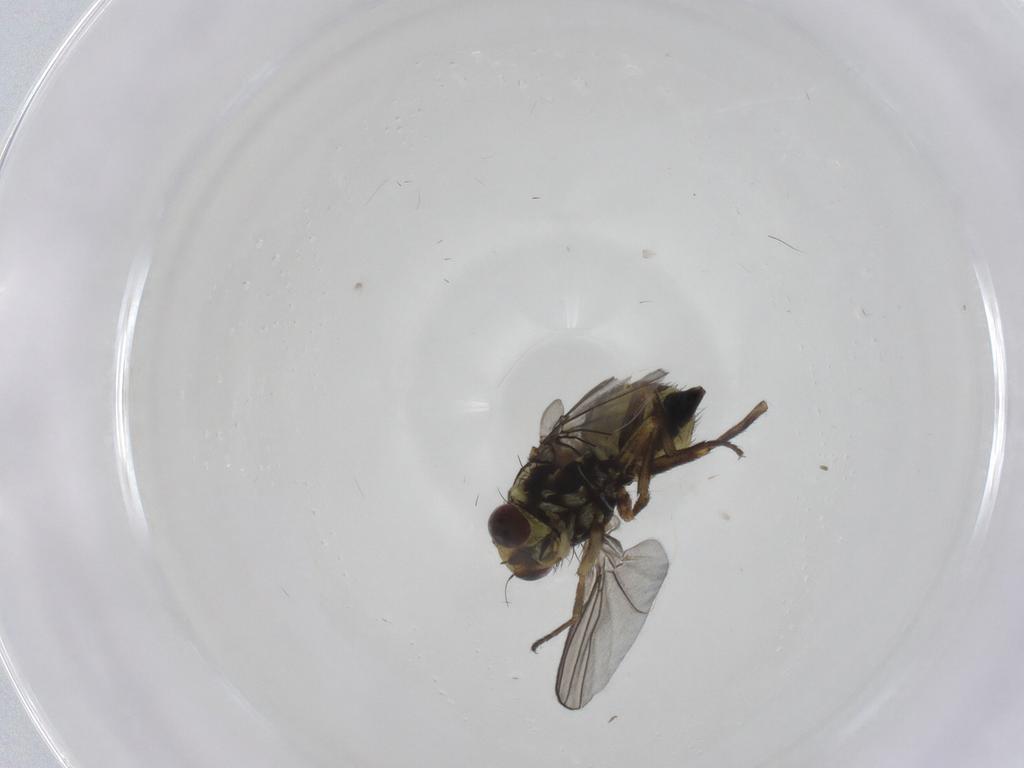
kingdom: Animalia
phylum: Arthropoda
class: Insecta
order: Diptera
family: Agromyzidae
